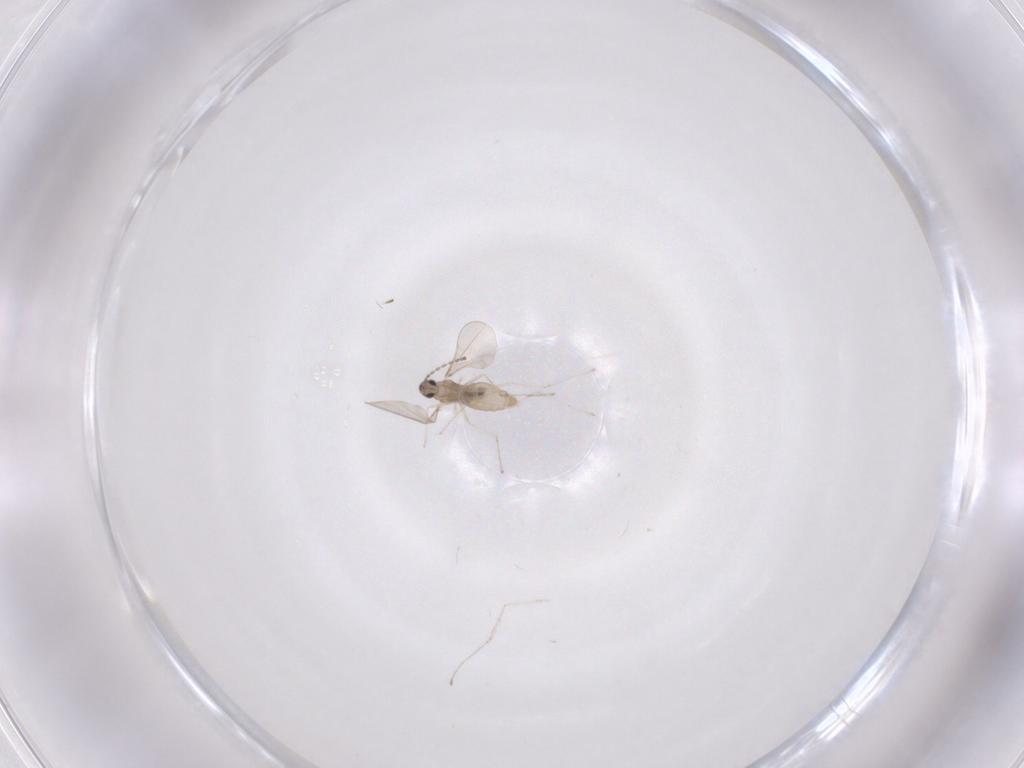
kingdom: Animalia
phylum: Arthropoda
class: Insecta
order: Diptera
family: Cecidomyiidae
